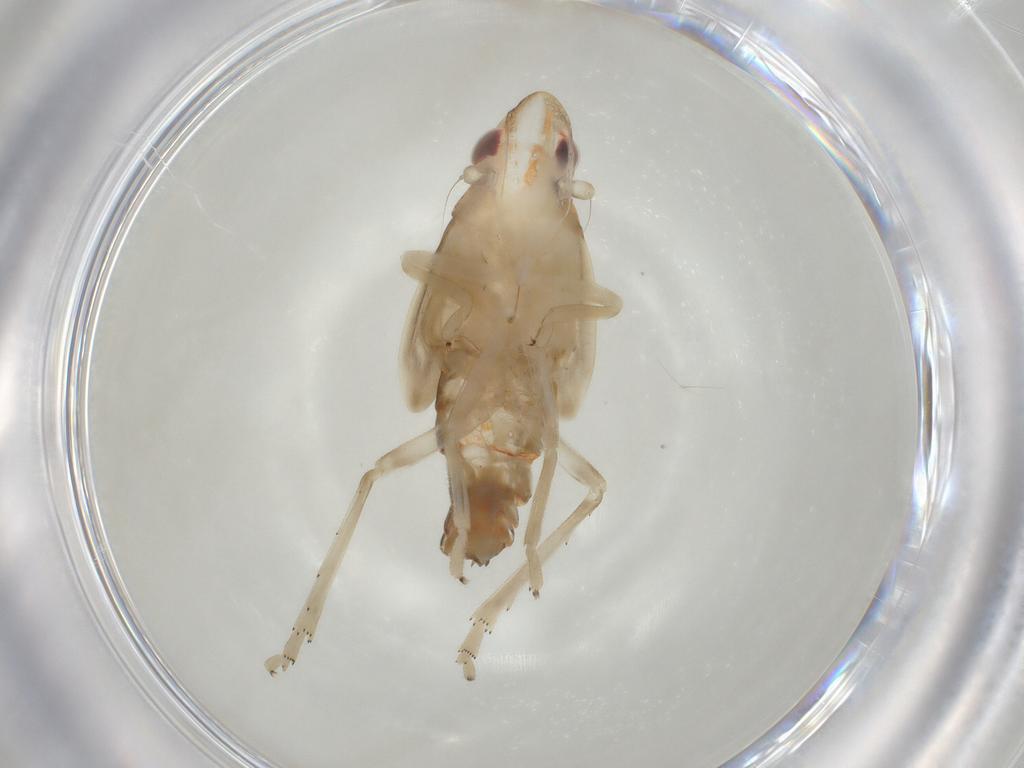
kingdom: Animalia
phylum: Arthropoda
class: Insecta
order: Hemiptera
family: Tropiduchidae
